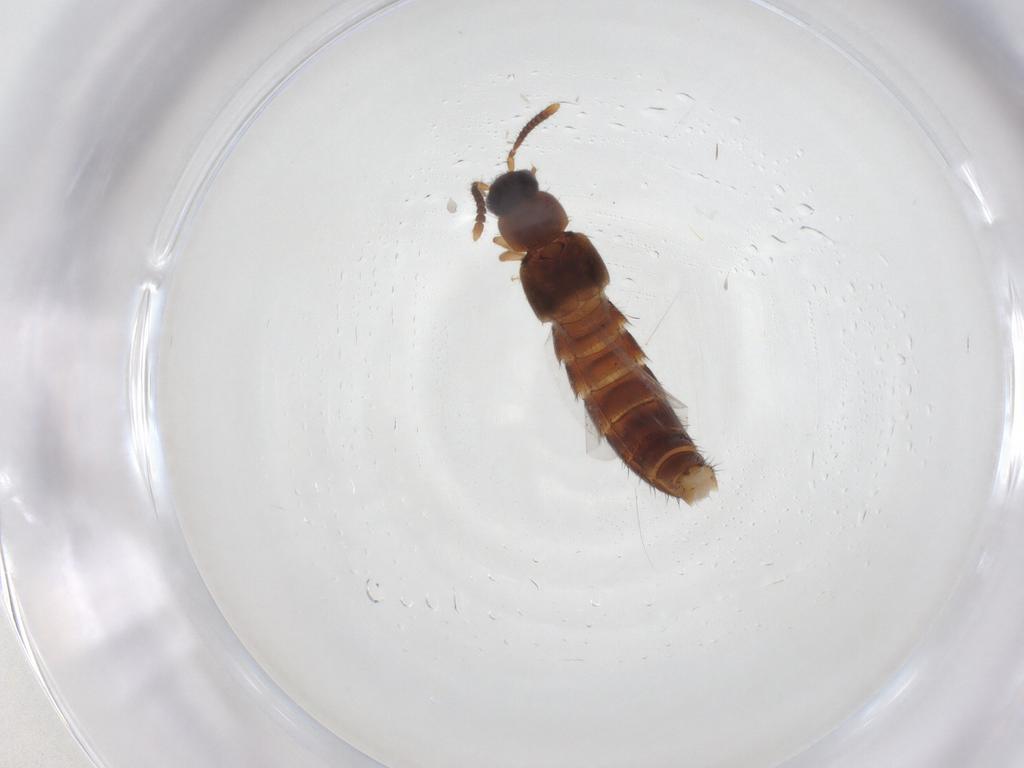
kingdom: Animalia
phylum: Arthropoda
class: Insecta
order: Coleoptera
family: Staphylinidae
